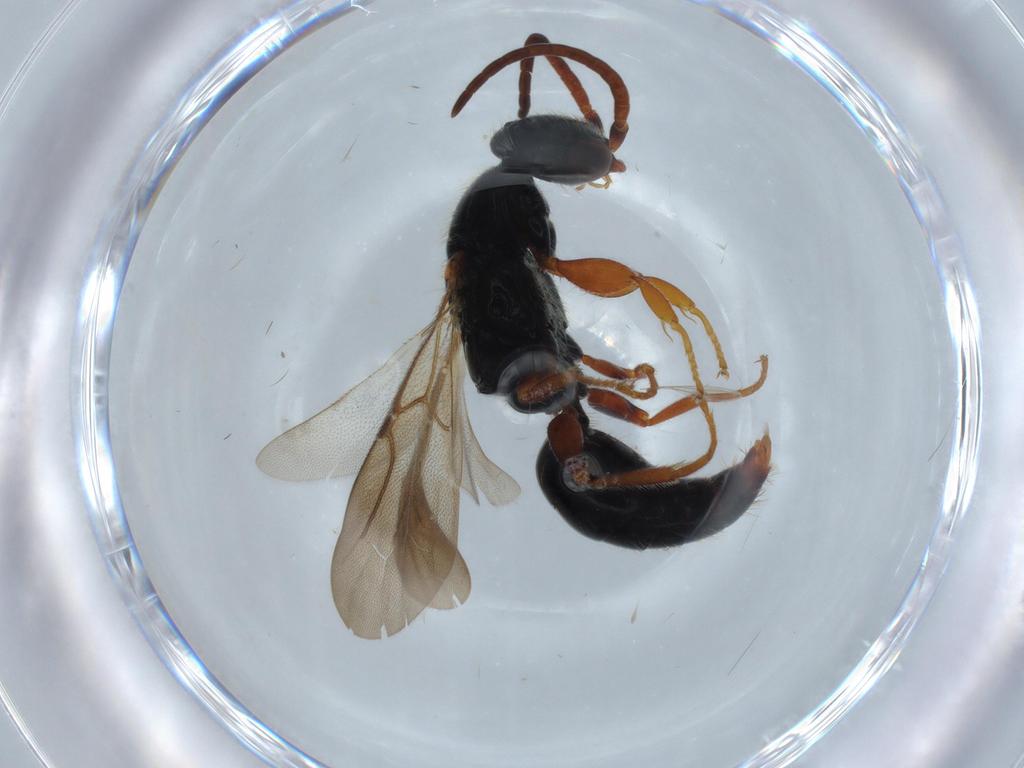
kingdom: Animalia
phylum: Arthropoda
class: Insecta
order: Hymenoptera
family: Bethylidae
